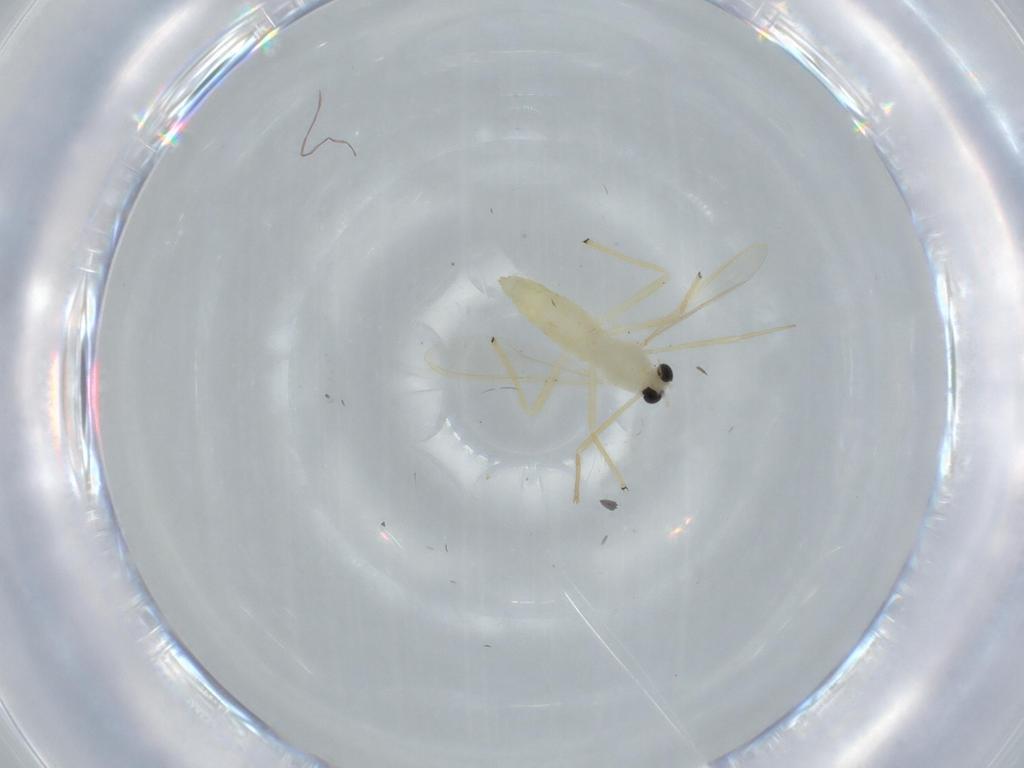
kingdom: Animalia
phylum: Arthropoda
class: Insecta
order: Diptera
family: Chironomidae
